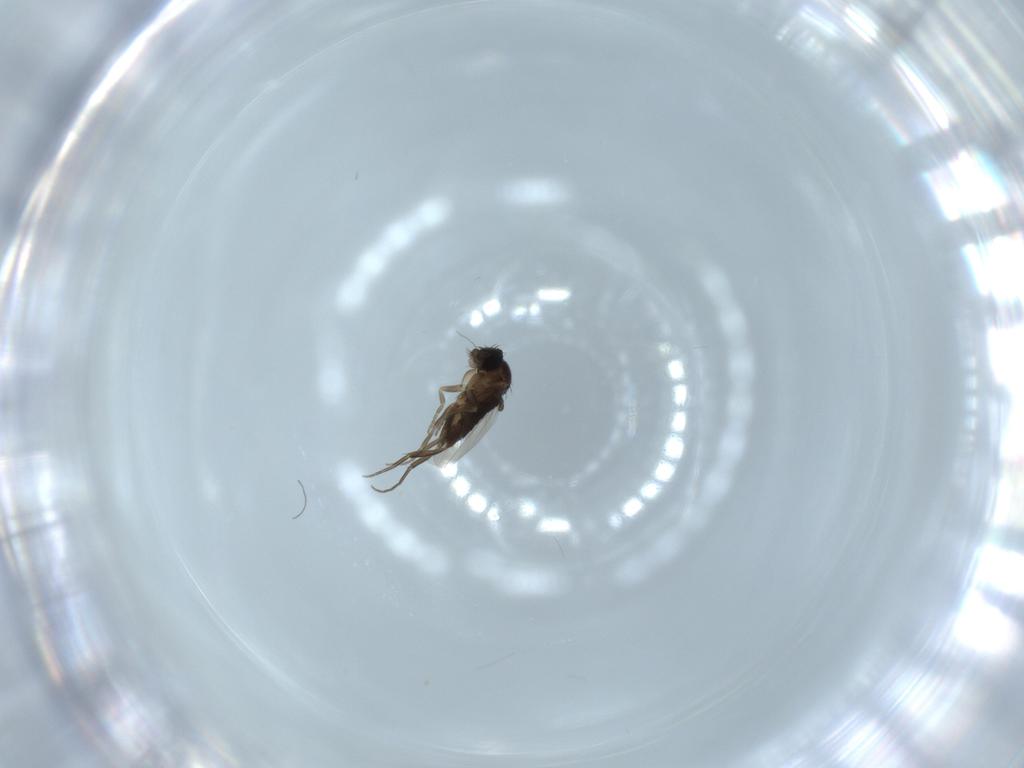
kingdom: Animalia
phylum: Arthropoda
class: Insecta
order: Diptera
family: Phoridae
